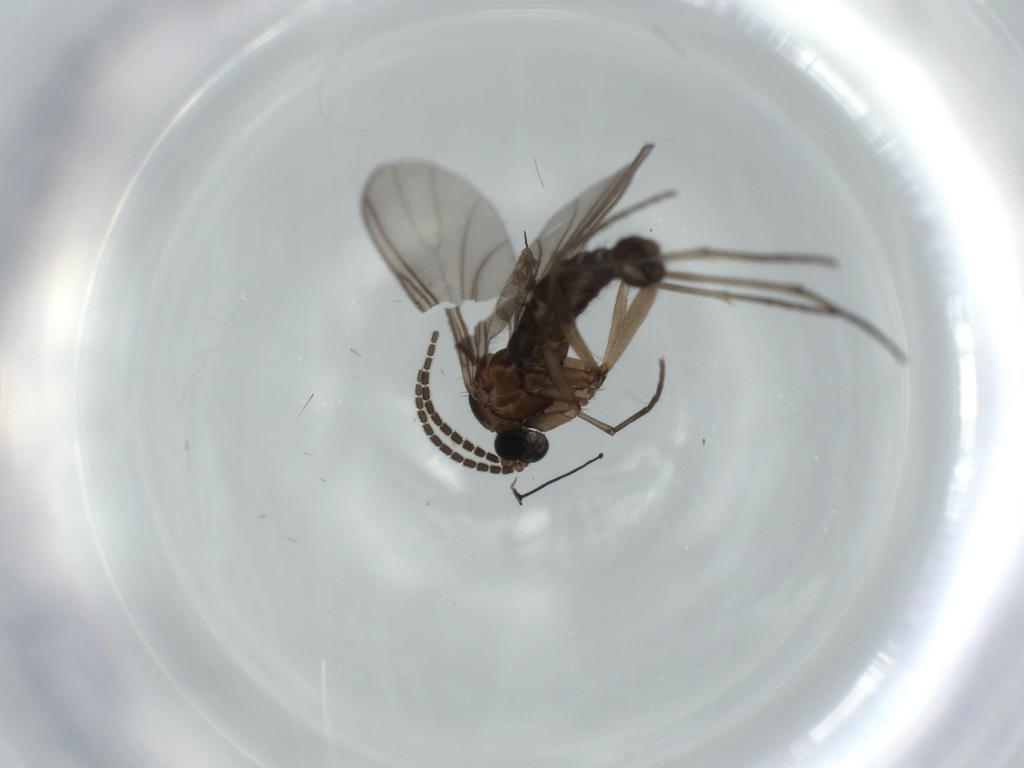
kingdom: Animalia
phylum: Arthropoda
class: Insecta
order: Diptera
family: Sciaridae
